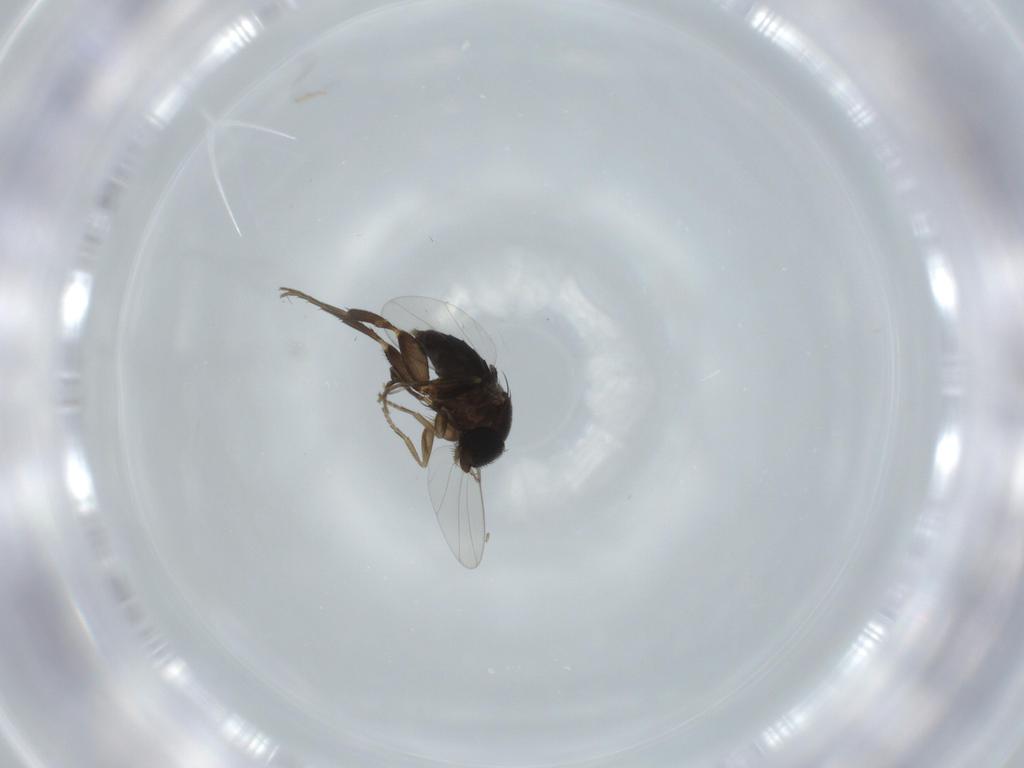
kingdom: Animalia
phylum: Arthropoda
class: Insecta
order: Diptera
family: Phoridae
